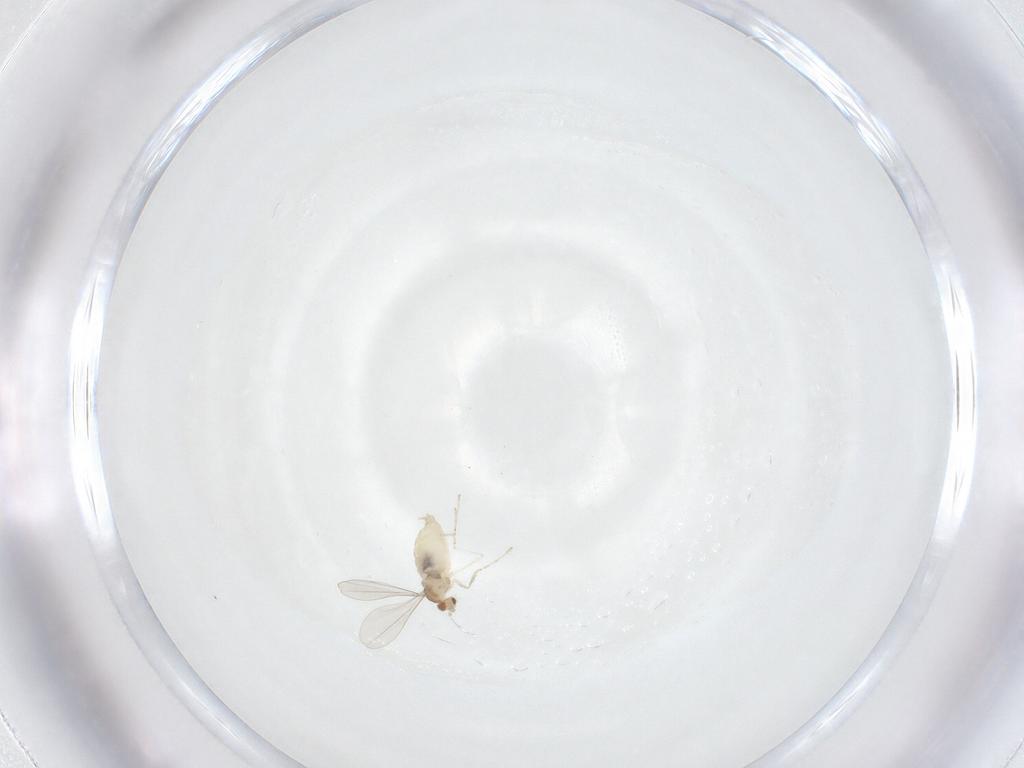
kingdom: Animalia
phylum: Arthropoda
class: Insecta
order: Diptera
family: Cecidomyiidae
